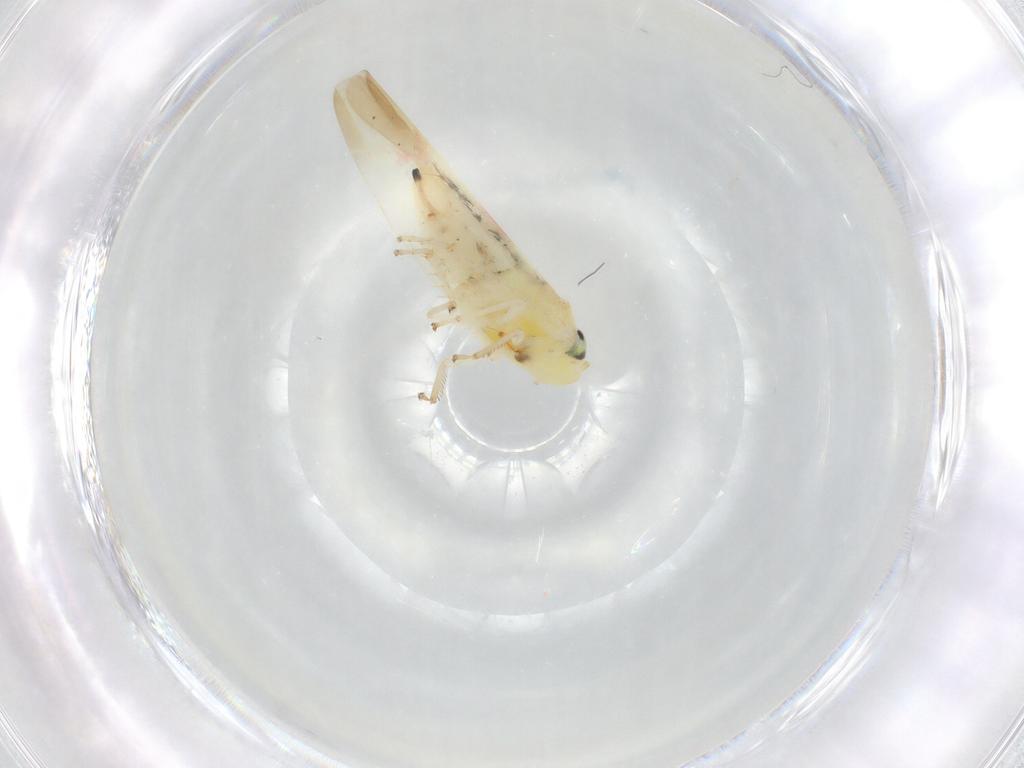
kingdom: Animalia
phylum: Arthropoda
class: Insecta
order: Hemiptera
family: Cicadellidae
